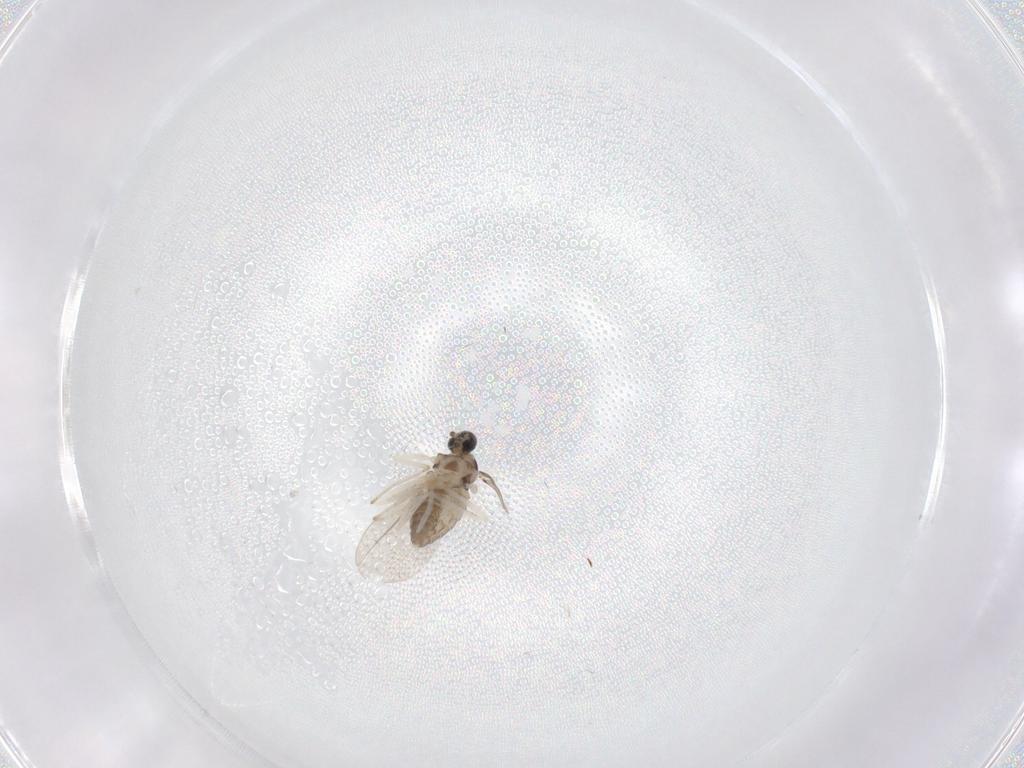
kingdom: Animalia
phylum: Arthropoda
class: Insecta
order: Diptera
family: Cecidomyiidae
